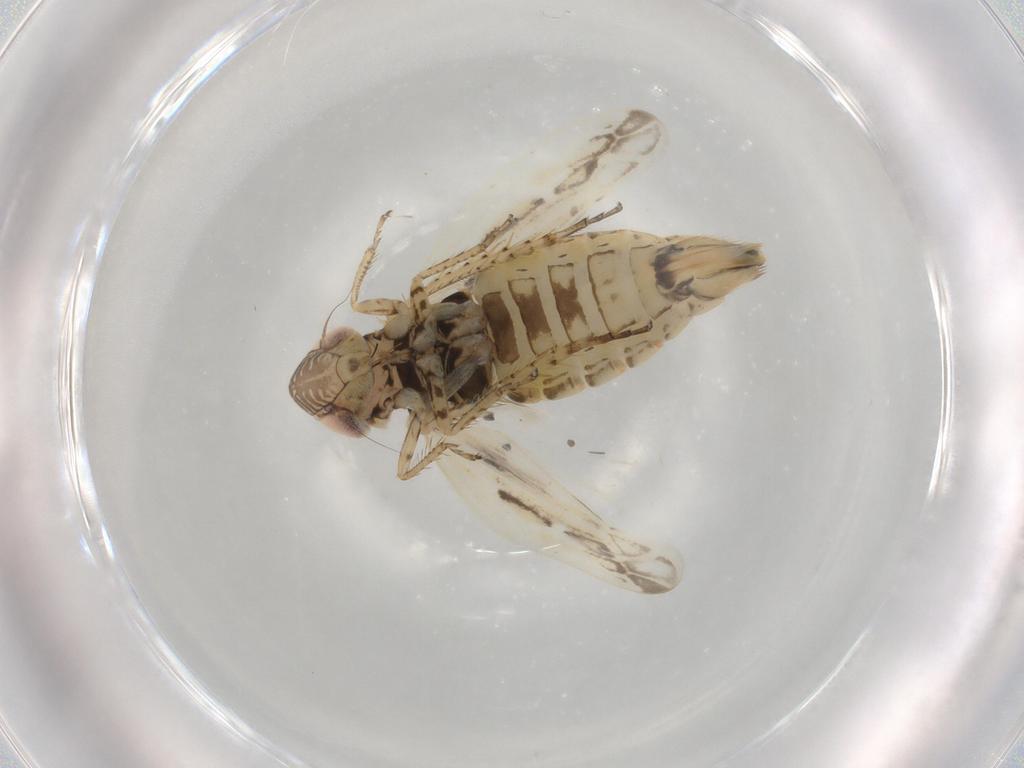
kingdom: Animalia
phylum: Arthropoda
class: Insecta
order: Hemiptera
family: Cicadellidae
